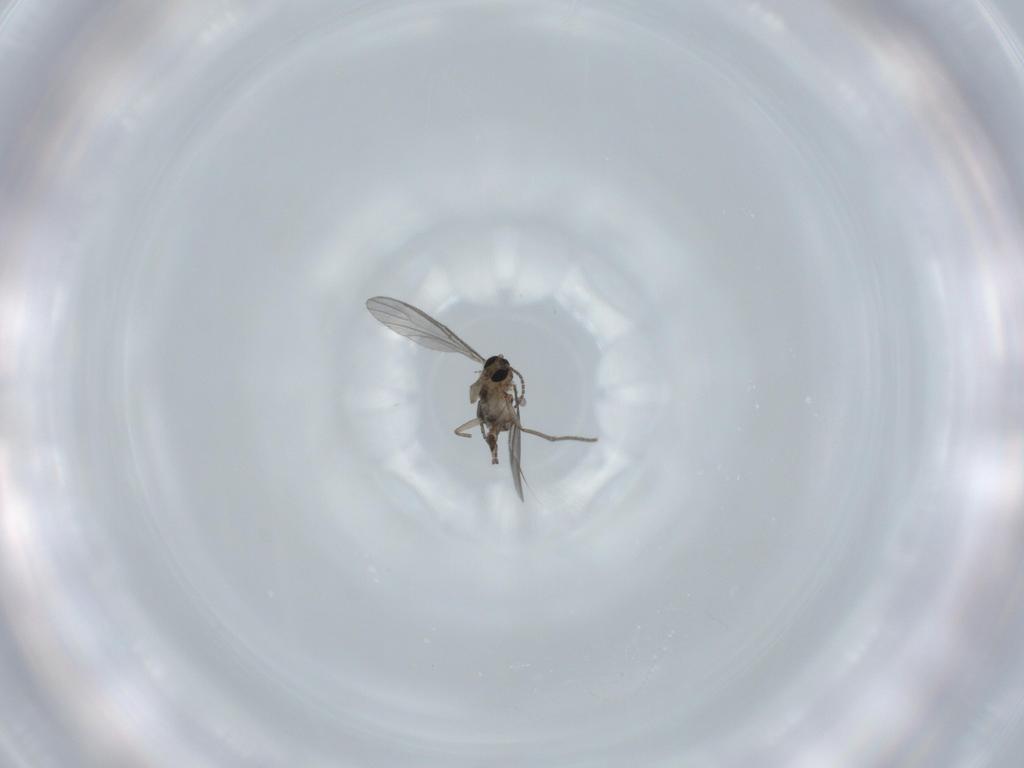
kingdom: Animalia
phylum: Arthropoda
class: Insecta
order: Diptera
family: Sciaridae
